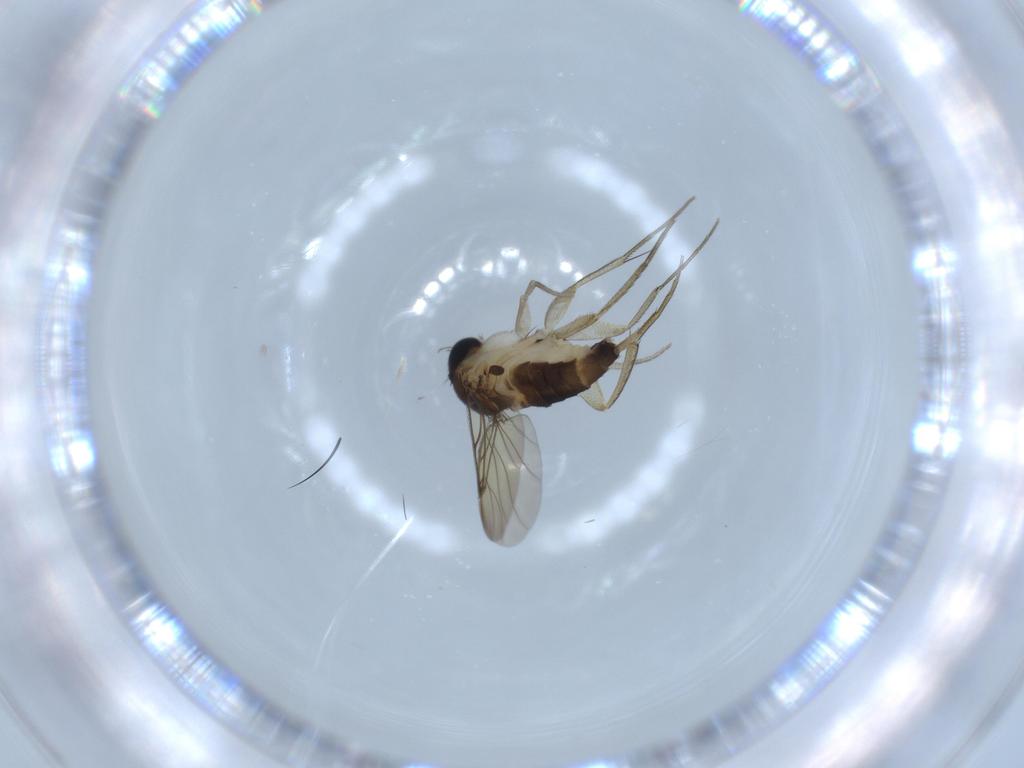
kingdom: Animalia
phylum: Arthropoda
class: Insecta
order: Diptera
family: Phoridae
